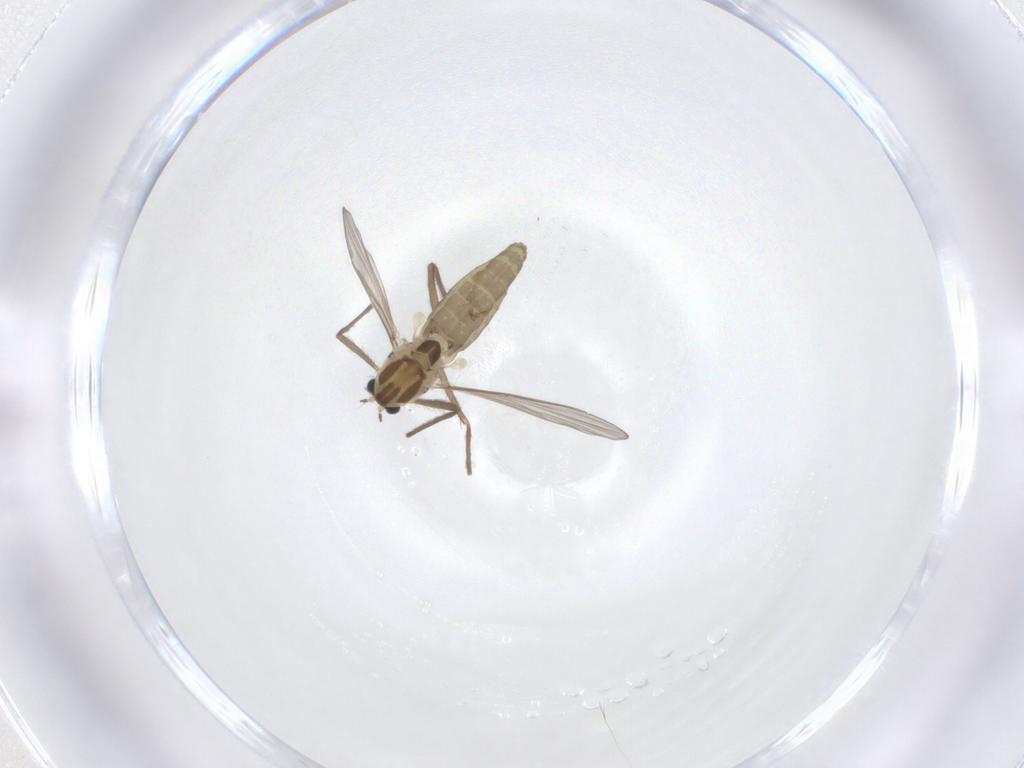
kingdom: Animalia
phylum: Arthropoda
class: Insecta
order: Diptera
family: Chironomidae
